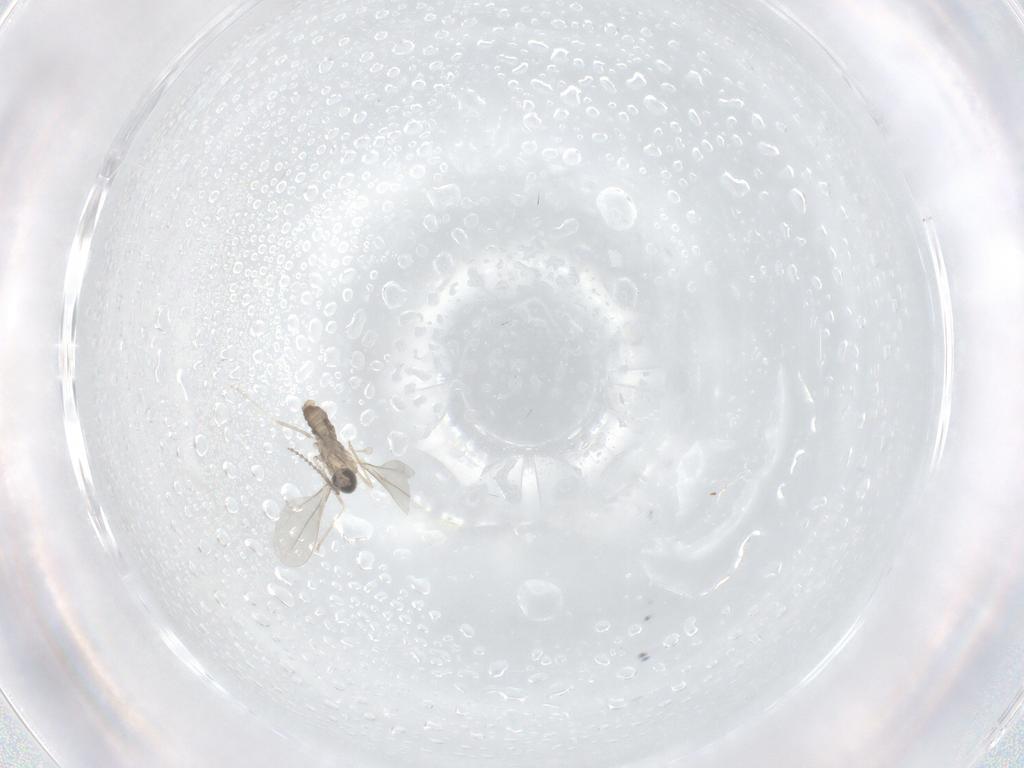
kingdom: Animalia
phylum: Arthropoda
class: Insecta
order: Diptera
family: Cecidomyiidae
